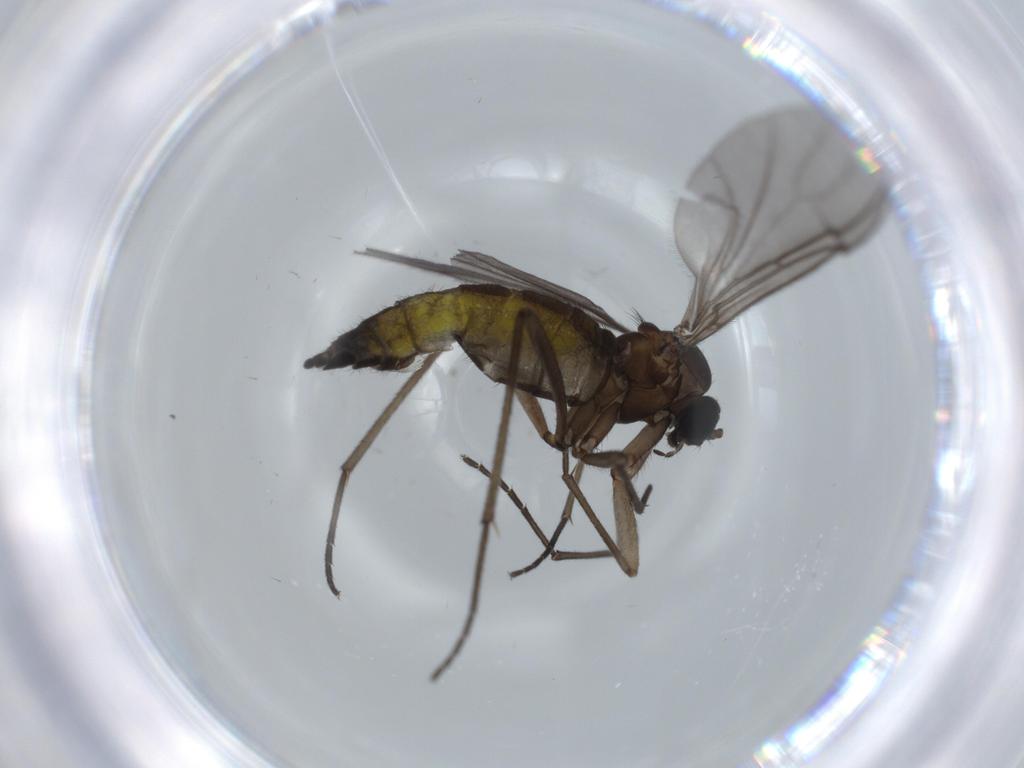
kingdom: Animalia
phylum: Arthropoda
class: Insecta
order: Diptera
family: Sciaridae
